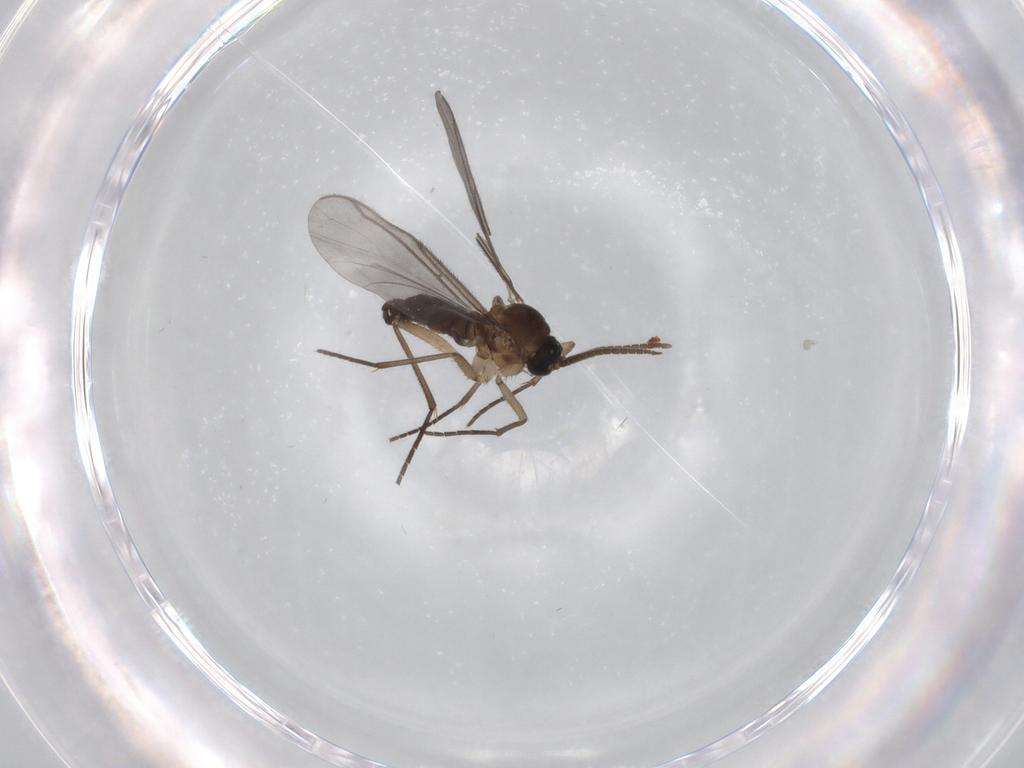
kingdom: Animalia
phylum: Arthropoda
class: Insecta
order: Diptera
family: Sciaridae
